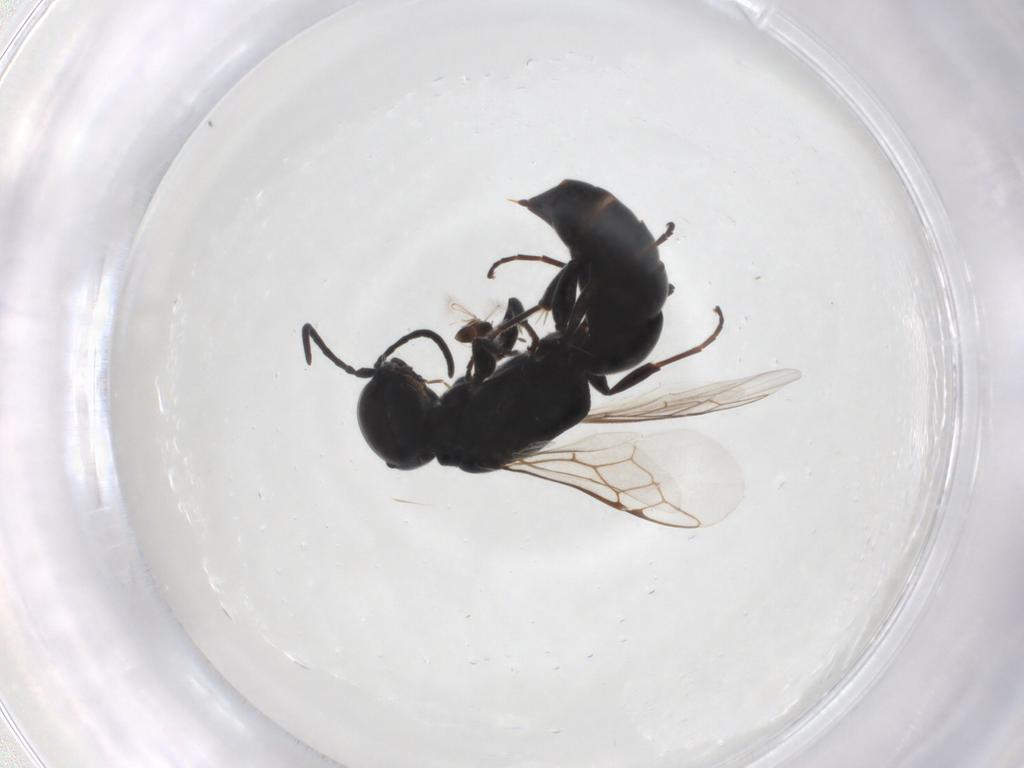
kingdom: Animalia
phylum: Arthropoda
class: Insecta
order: Hymenoptera
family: Crabronidae
